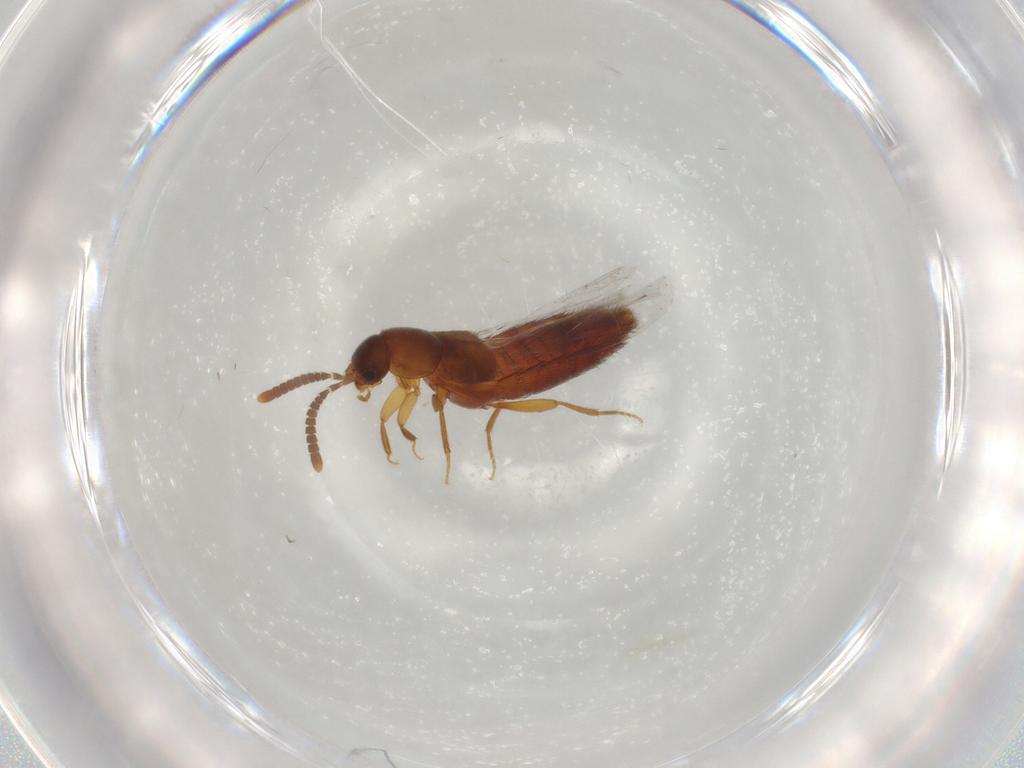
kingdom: Animalia
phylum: Arthropoda
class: Insecta
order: Coleoptera
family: Staphylinidae
